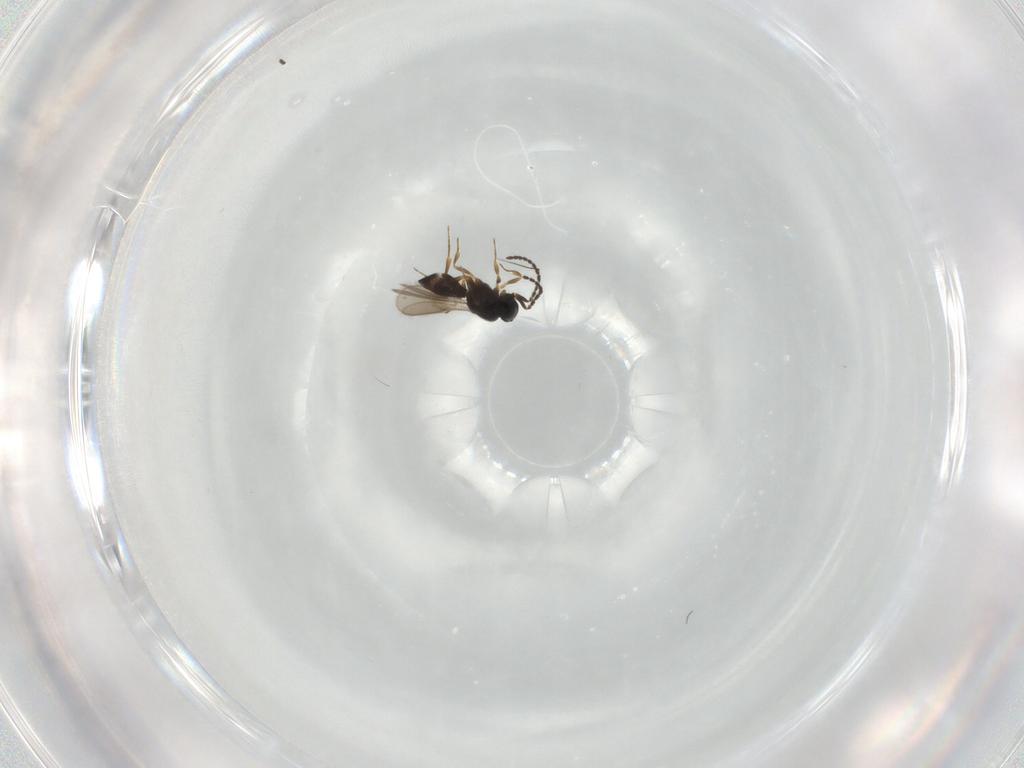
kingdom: Animalia
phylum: Arthropoda
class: Insecta
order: Hymenoptera
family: Scelionidae
